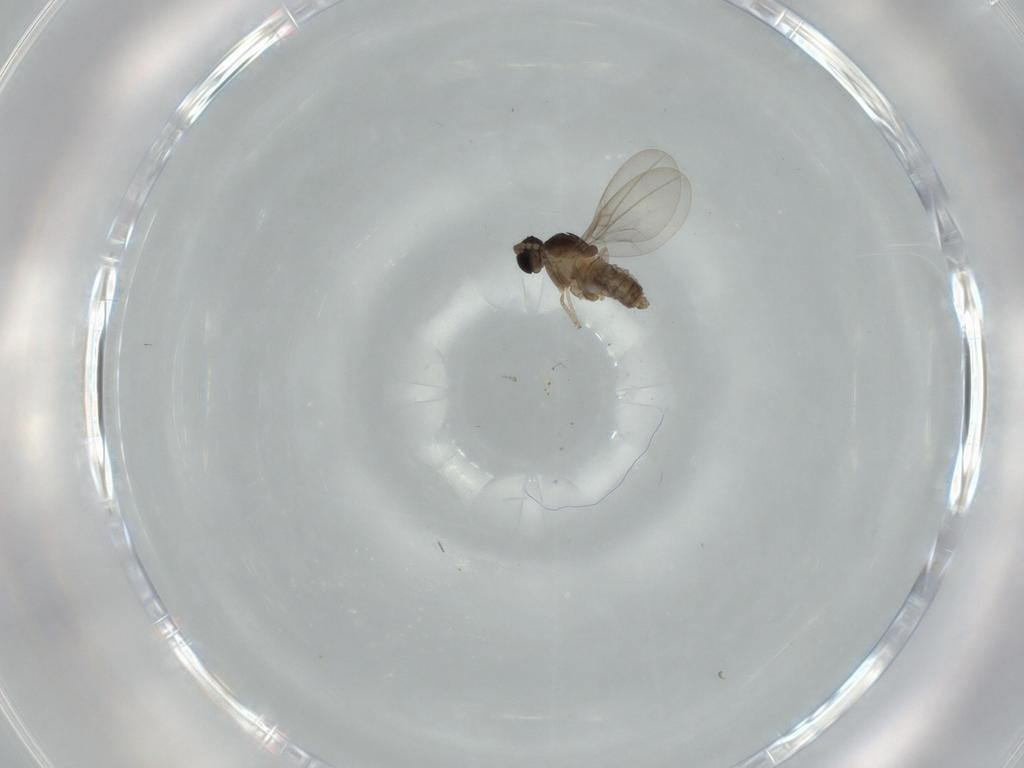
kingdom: Animalia
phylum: Arthropoda
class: Insecta
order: Diptera
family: Cecidomyiidae
